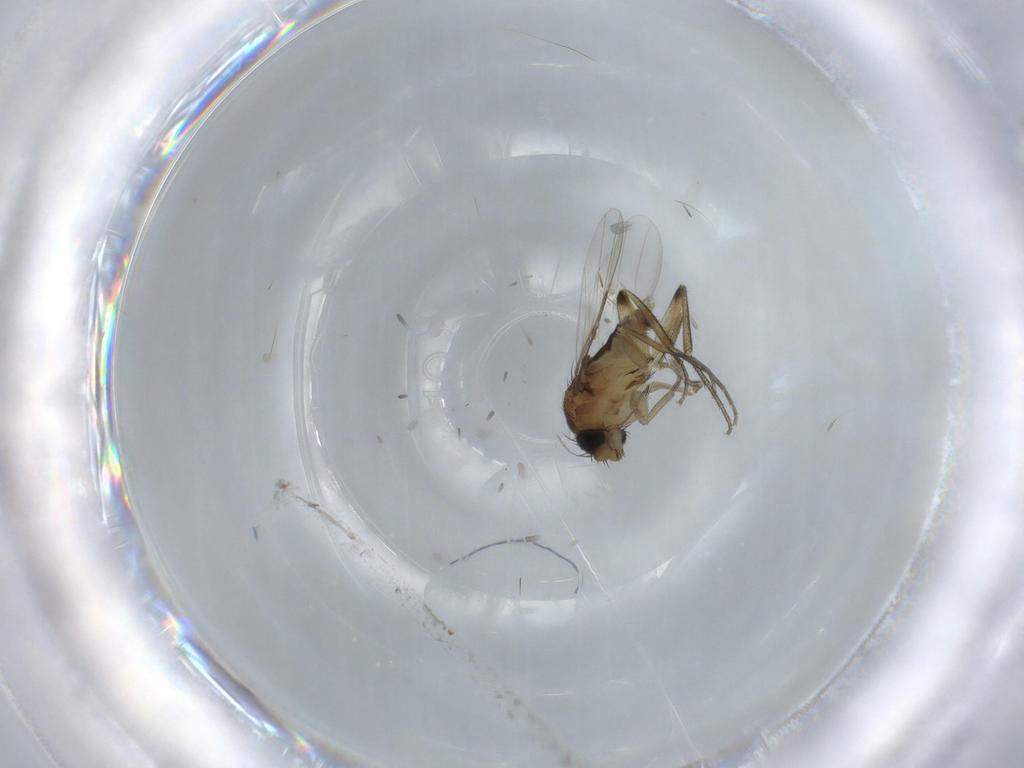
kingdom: Animalia
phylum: Arthropoda
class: Insecta
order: Diptera
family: Phoridae
